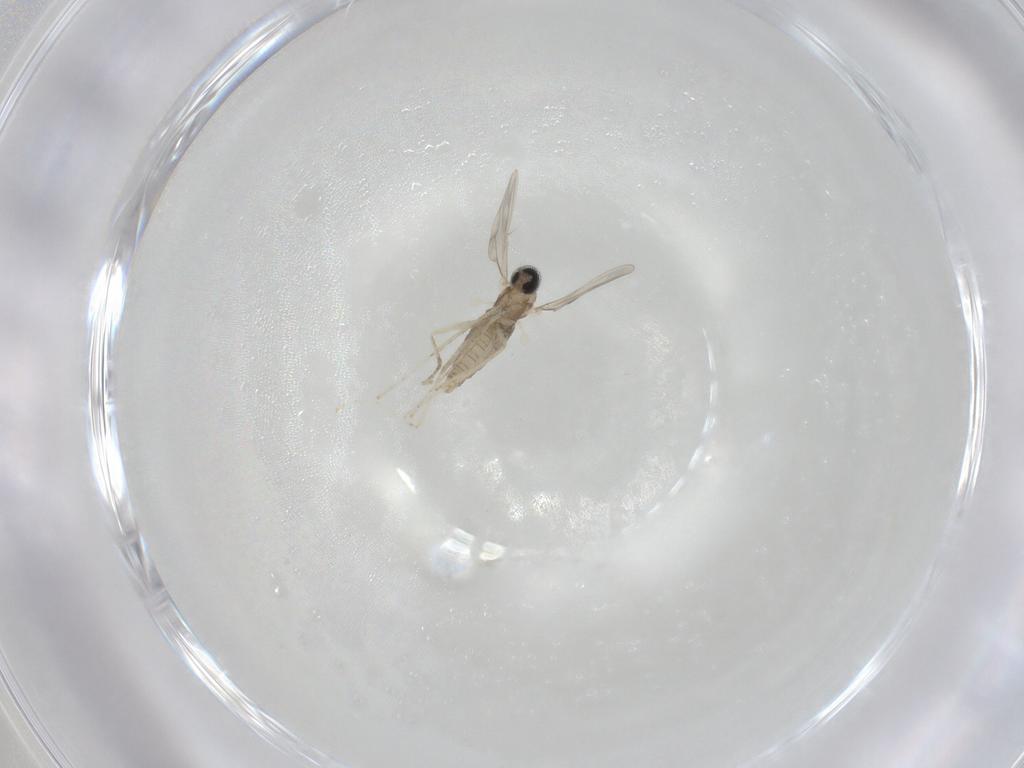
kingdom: Animalia
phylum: Arthropoda
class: Insecta
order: Diptera
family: Cecidomyiidae
